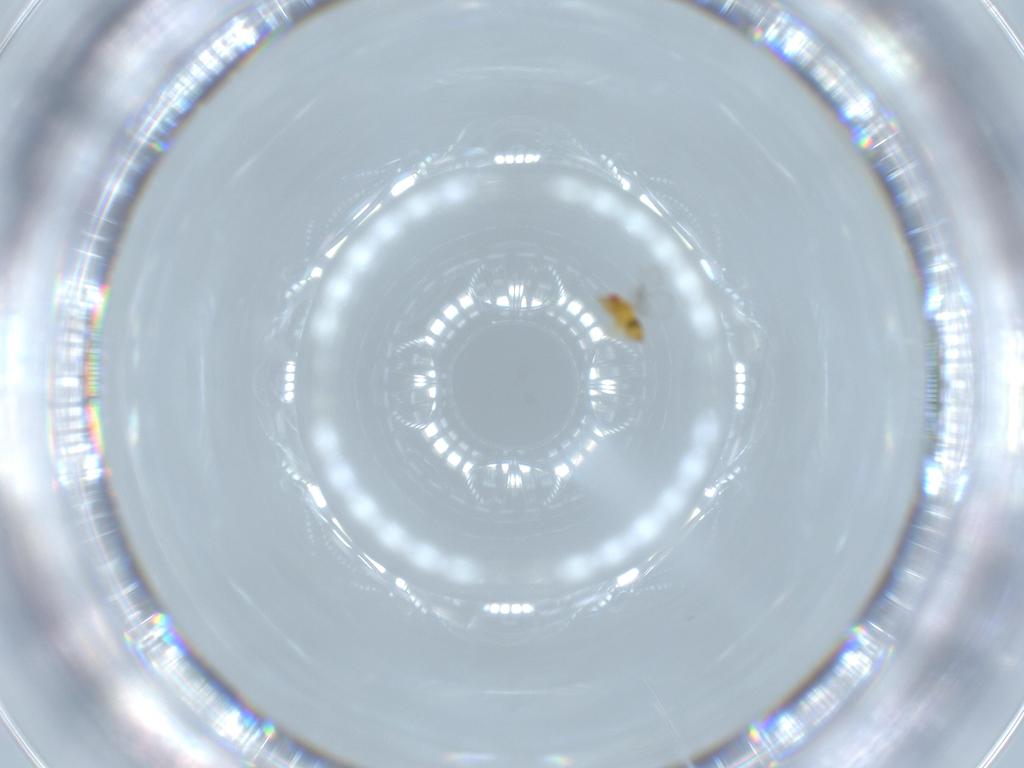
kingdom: Animalia
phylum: Arthropoda
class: Insecta
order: Hymenoptera
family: Trichogrammatidae
